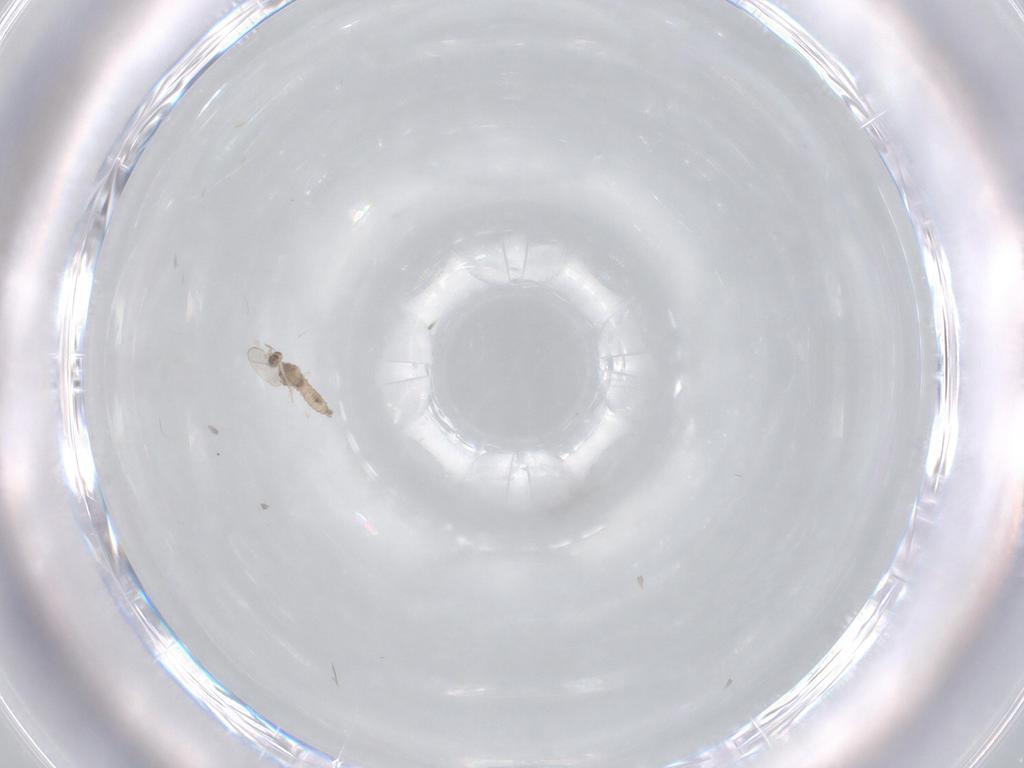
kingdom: Animalia
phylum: Arthropoda
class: Insecta
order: Diptera
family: Cecidomyiidae
